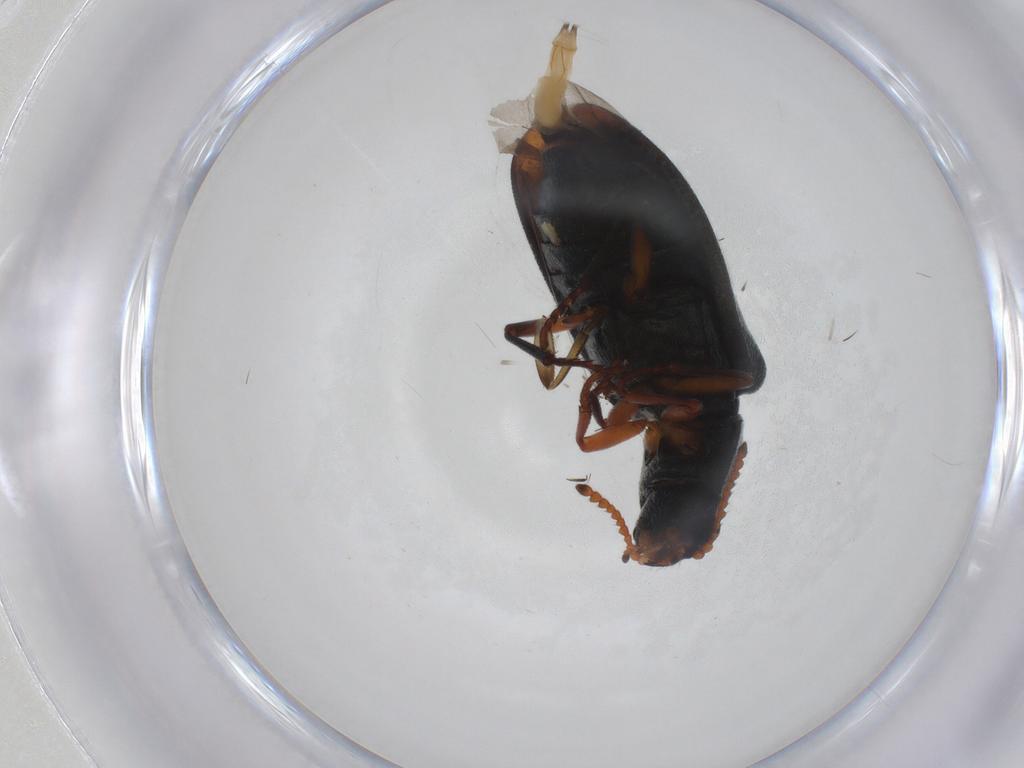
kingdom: Animalia
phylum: Arthropoda
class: Insecta
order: Coleoptera
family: Melyridae
